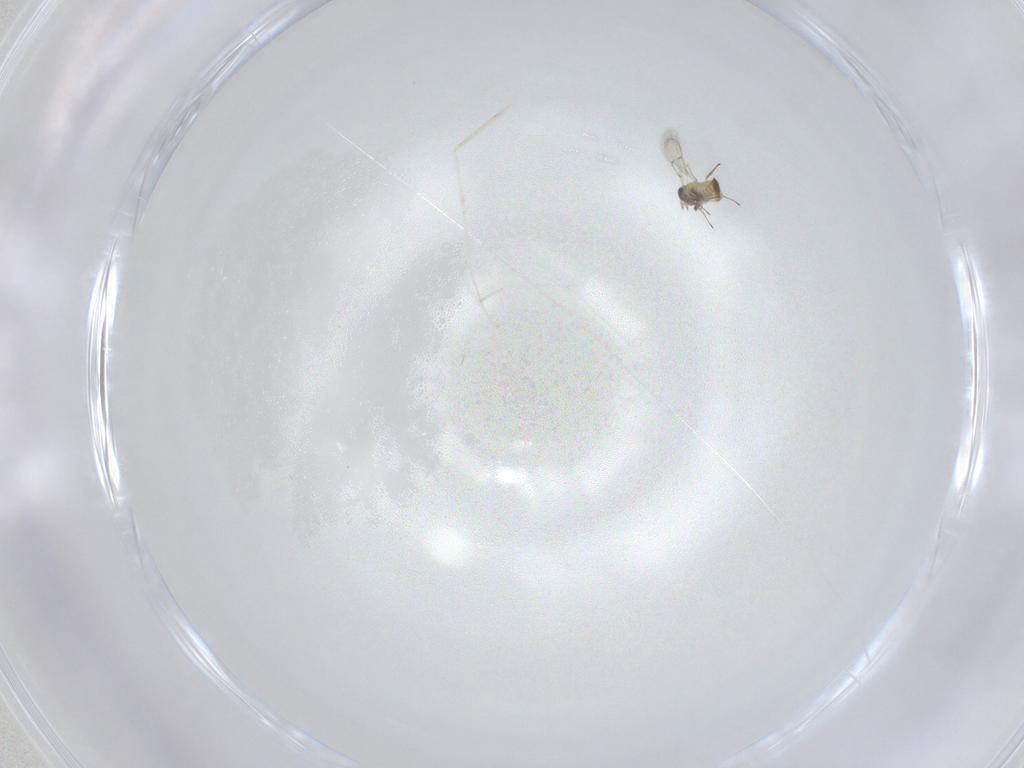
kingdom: Animalia
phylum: Arthropoda
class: Insecta
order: Diptera
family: Cecidomyiidae
